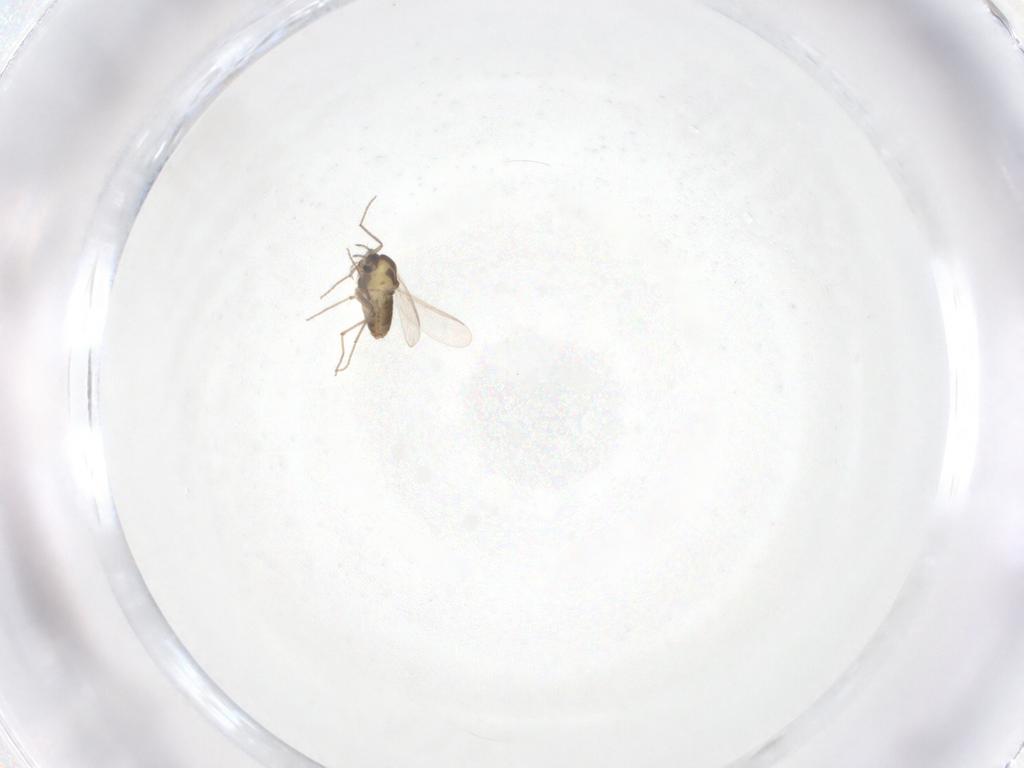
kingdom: Animalia
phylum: Arthropoda
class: Insecta
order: Diptera
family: Chironomidae
